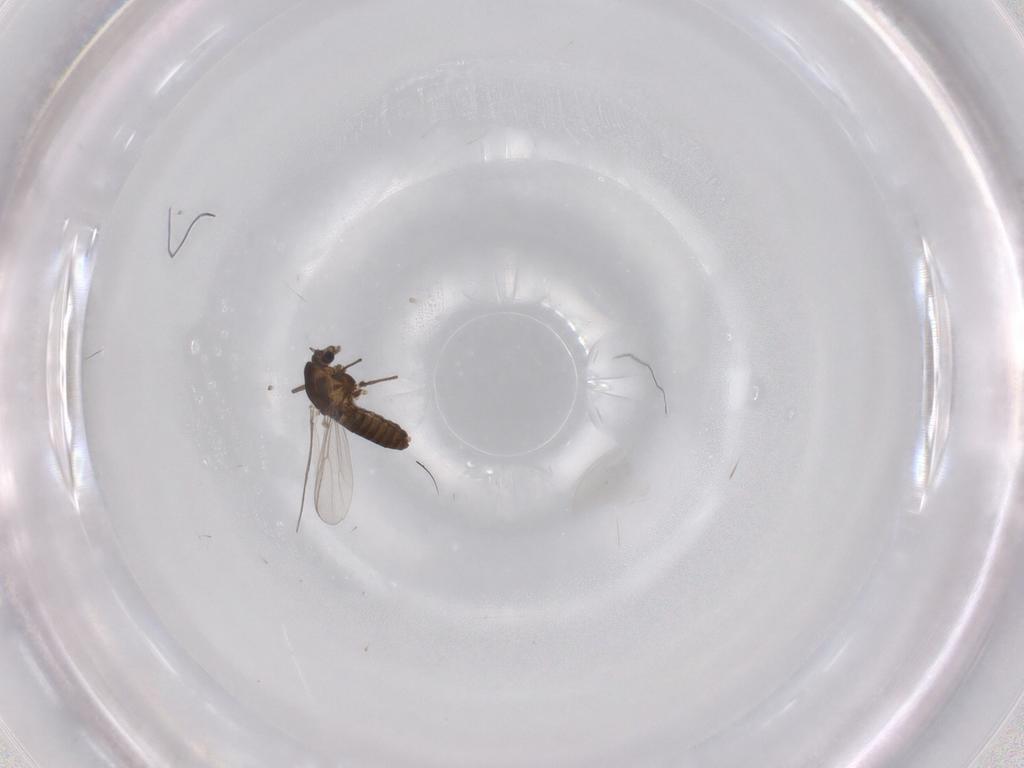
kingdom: Animalia
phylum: Arthropoda
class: Insecta
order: Diptera
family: Chironomidae
